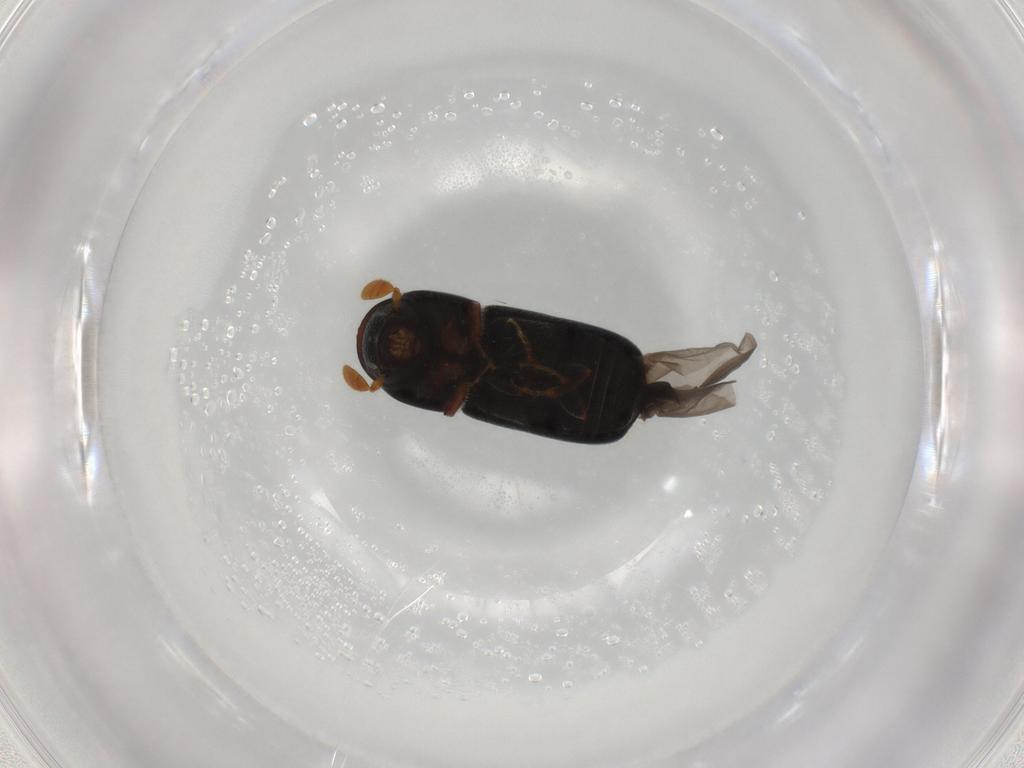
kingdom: Animalia
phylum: Arthropoda
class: Insecta
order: Coleoptera
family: Curculionidae
